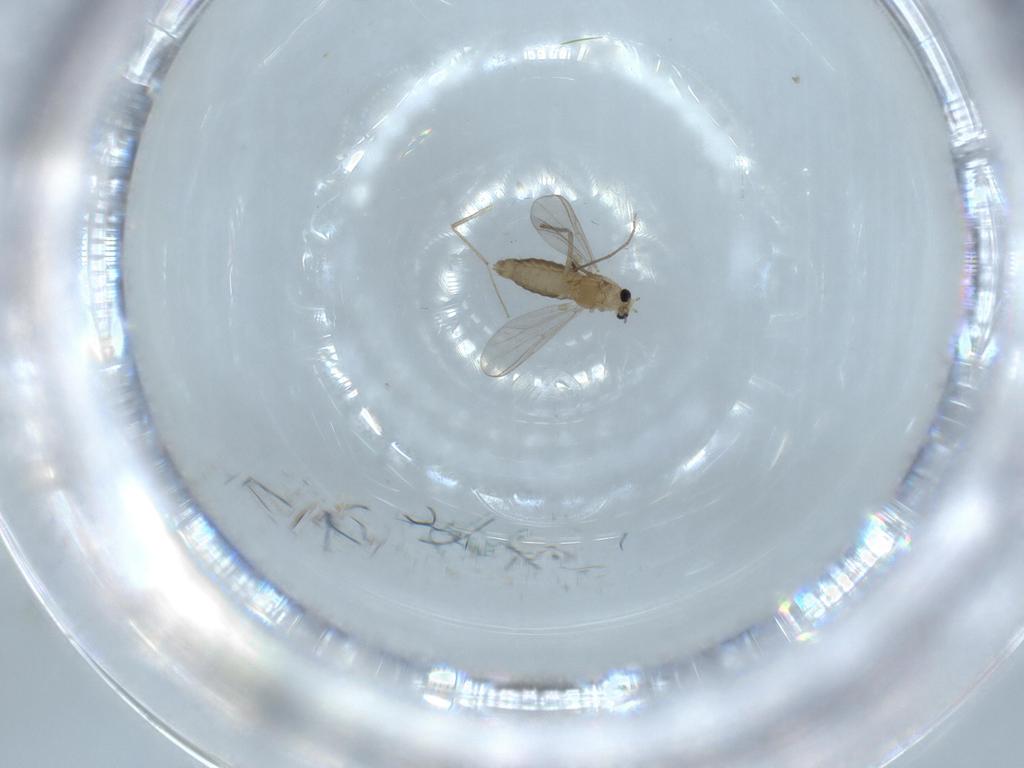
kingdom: Animalia
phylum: Arthropoda
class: Insecta
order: Diptera
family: Chironomidae
